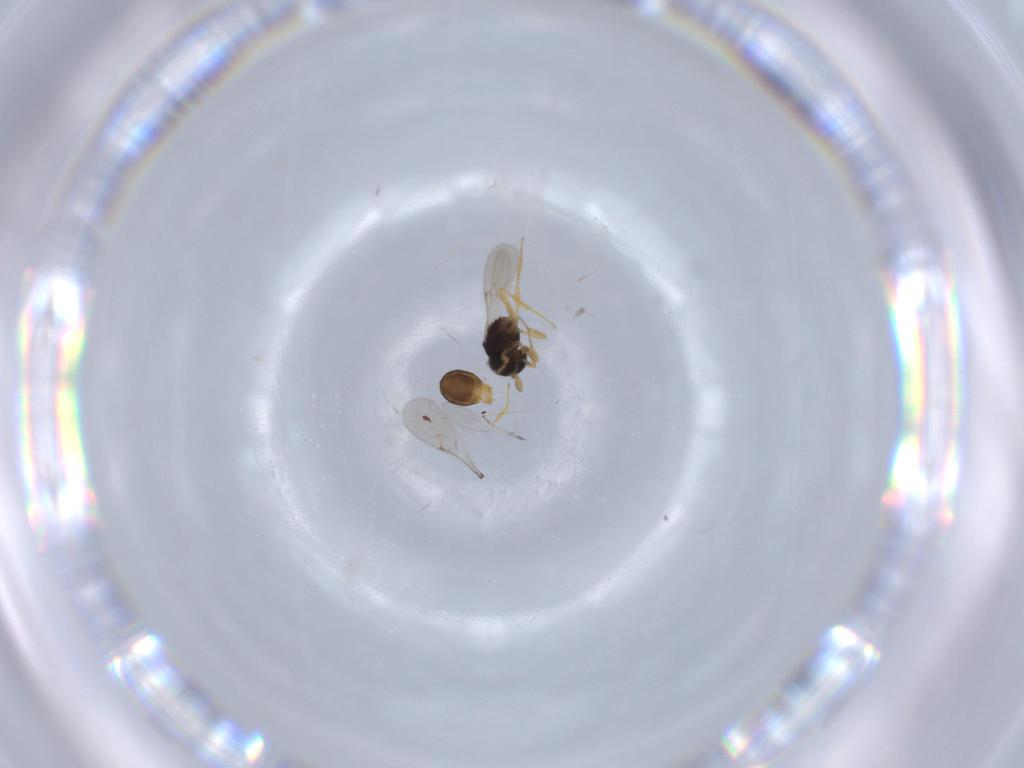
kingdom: Animalia
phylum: Arthropoda
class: Insecta
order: Hymenoptera
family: Scelionidae
